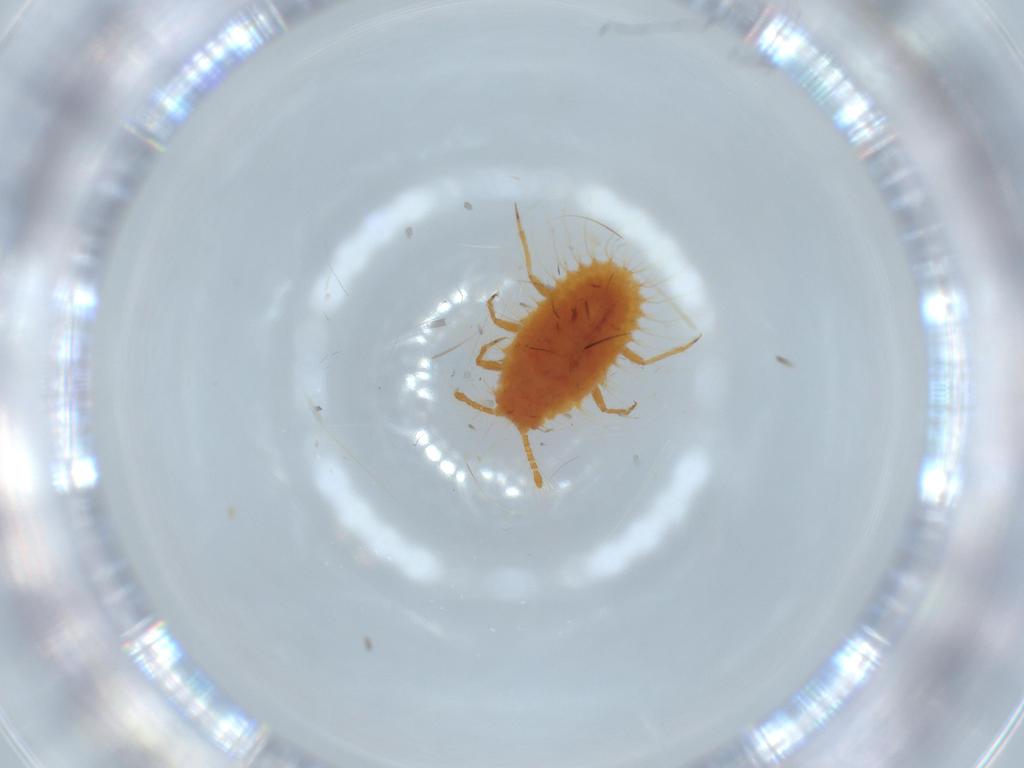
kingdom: Animalia
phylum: Arthropoda
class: Insecta
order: Hemiptera
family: Coccoidea_incertae_sedis
